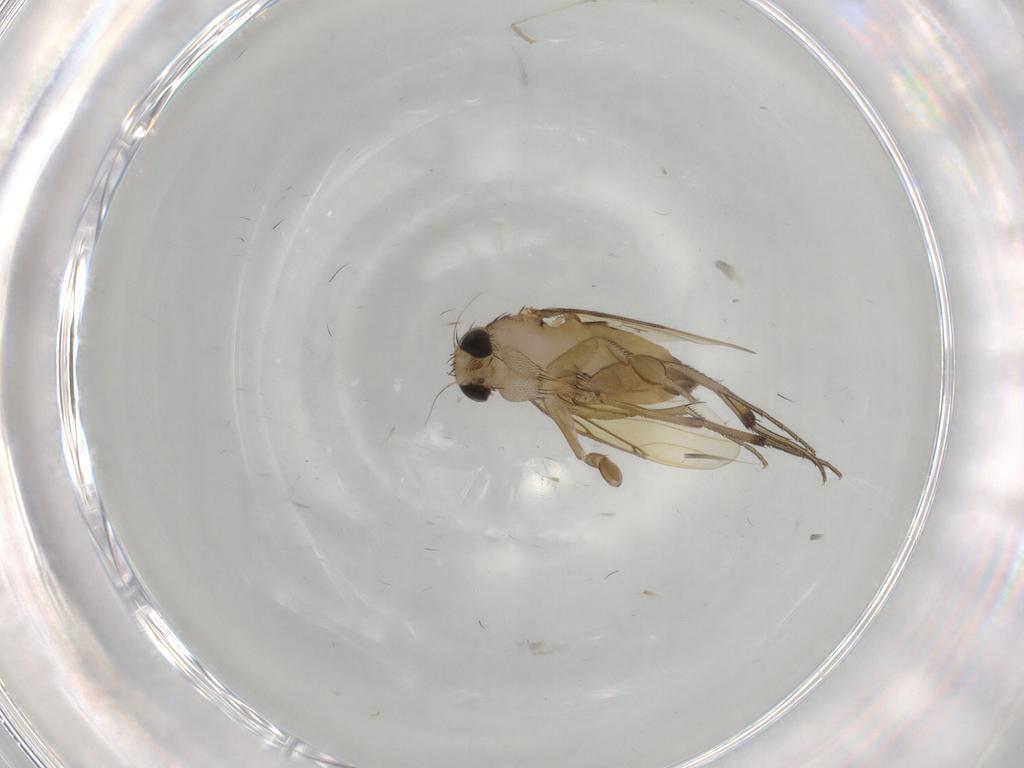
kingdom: Animalia
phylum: Arthropoda
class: Insecta
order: Diptera
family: Phoridae
